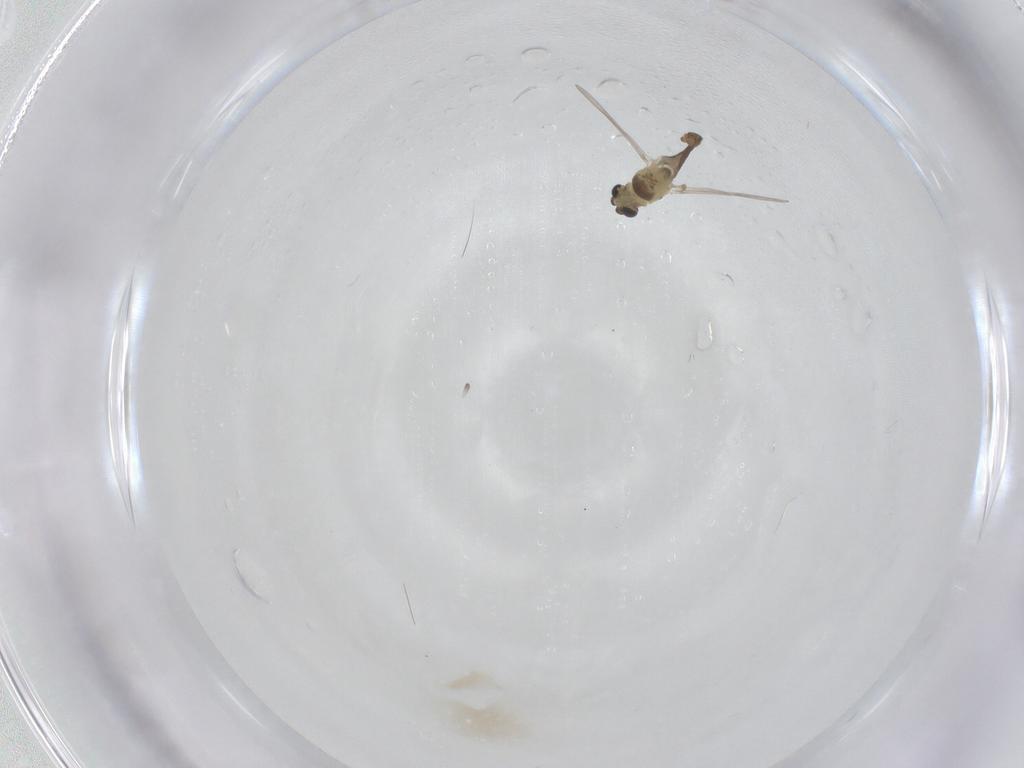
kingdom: Animalia
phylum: Arthropoda
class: Insecta
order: Diptera
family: Chironomidae
